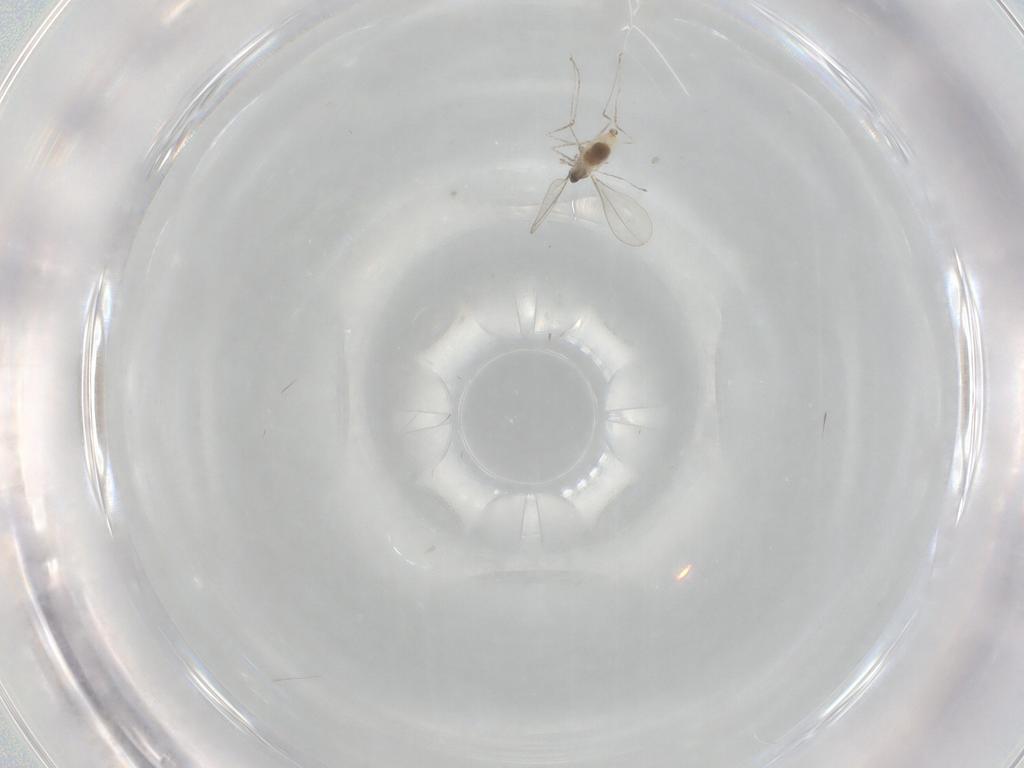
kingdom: Animalia
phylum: Arthropoda
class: Insecta
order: Diptera
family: Cecidomyiidae
